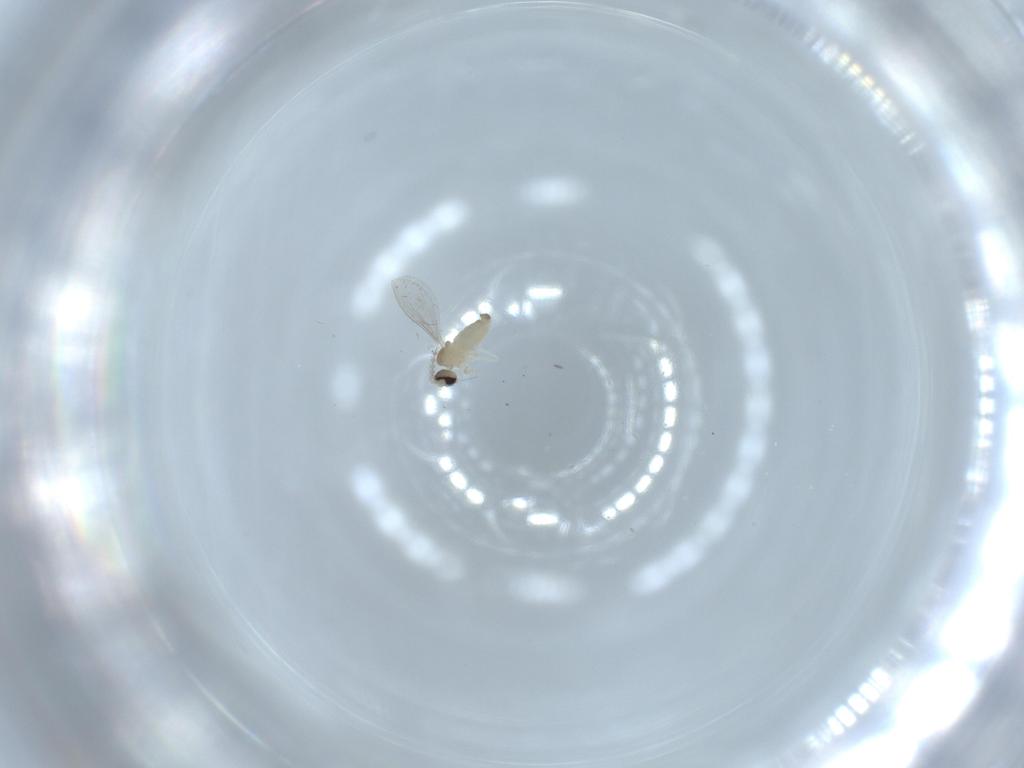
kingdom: Animalia
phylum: Arthropoda
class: Insecta
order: Diptera
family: Cecidomyiidae
